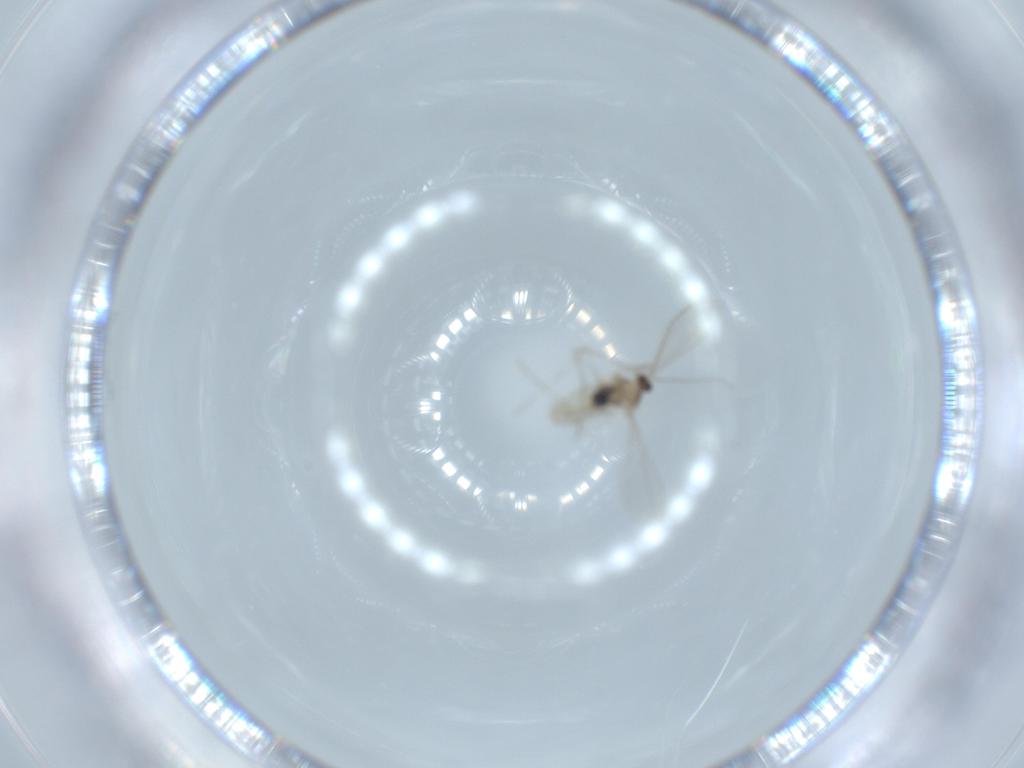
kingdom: Animalia
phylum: Arthropoda
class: Insecta
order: Diptera
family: Cecidomyiidae
